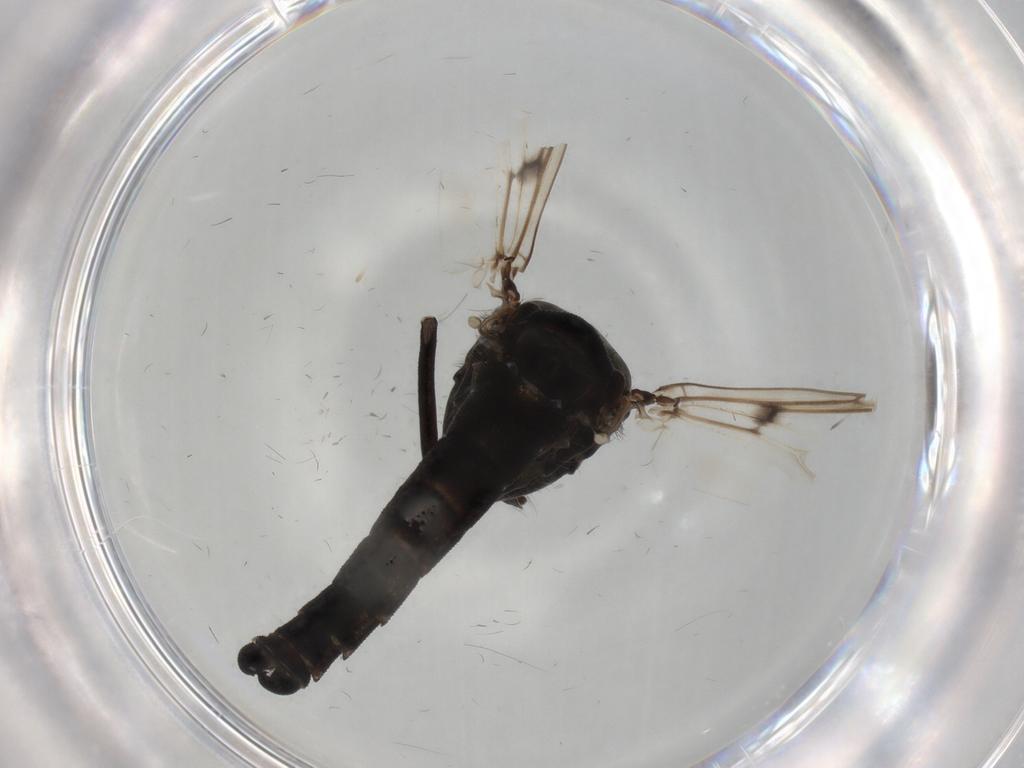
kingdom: Animalia
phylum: Arthropoda
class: Insecta
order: Diptera
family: Chironomidae
